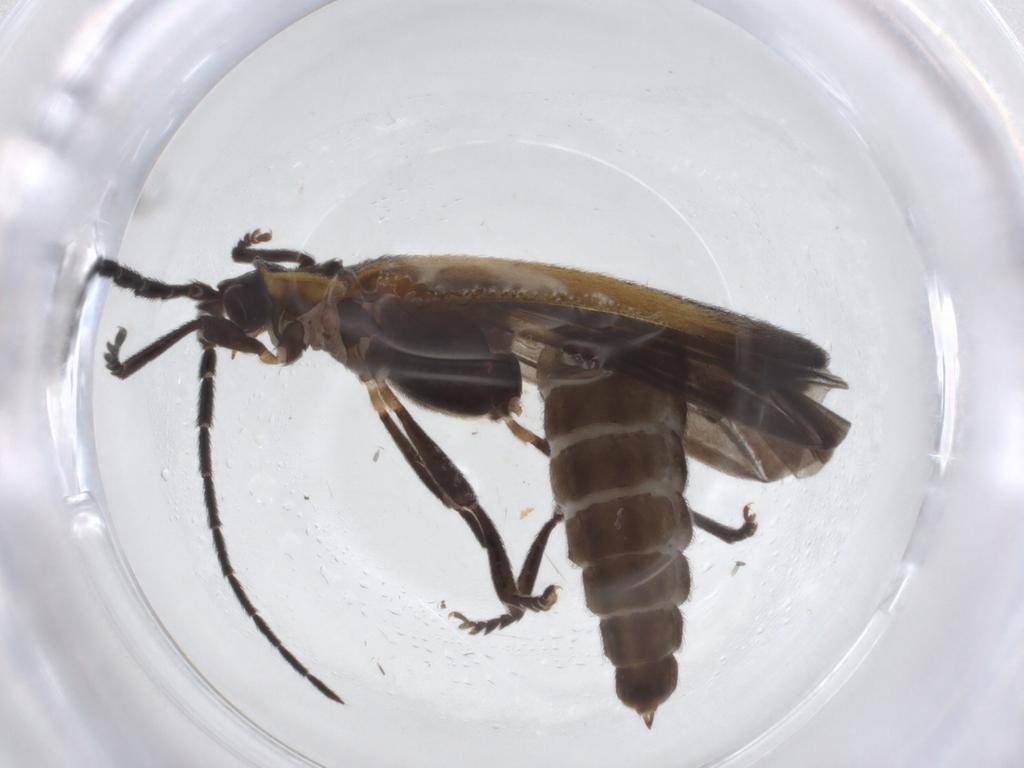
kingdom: Animalia
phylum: Arthropoda
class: Insecta
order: Coleoptera
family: Lycidae
